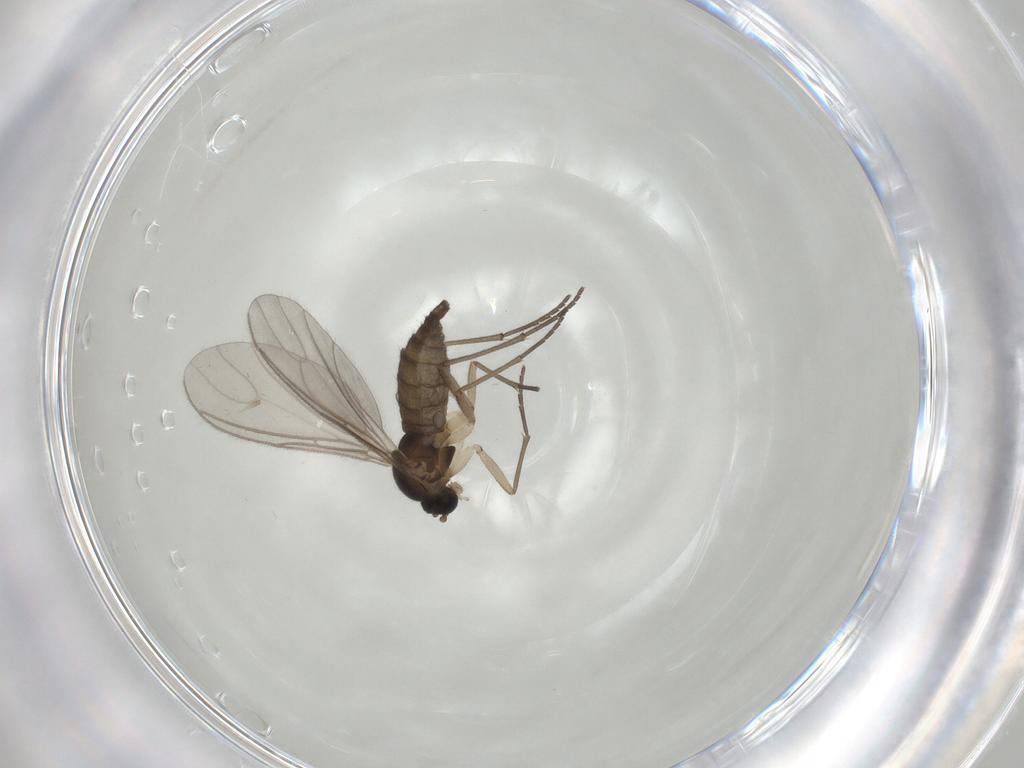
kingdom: Animalia
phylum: Arthropoda
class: Insecta
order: Diptera
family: Sciaridae
